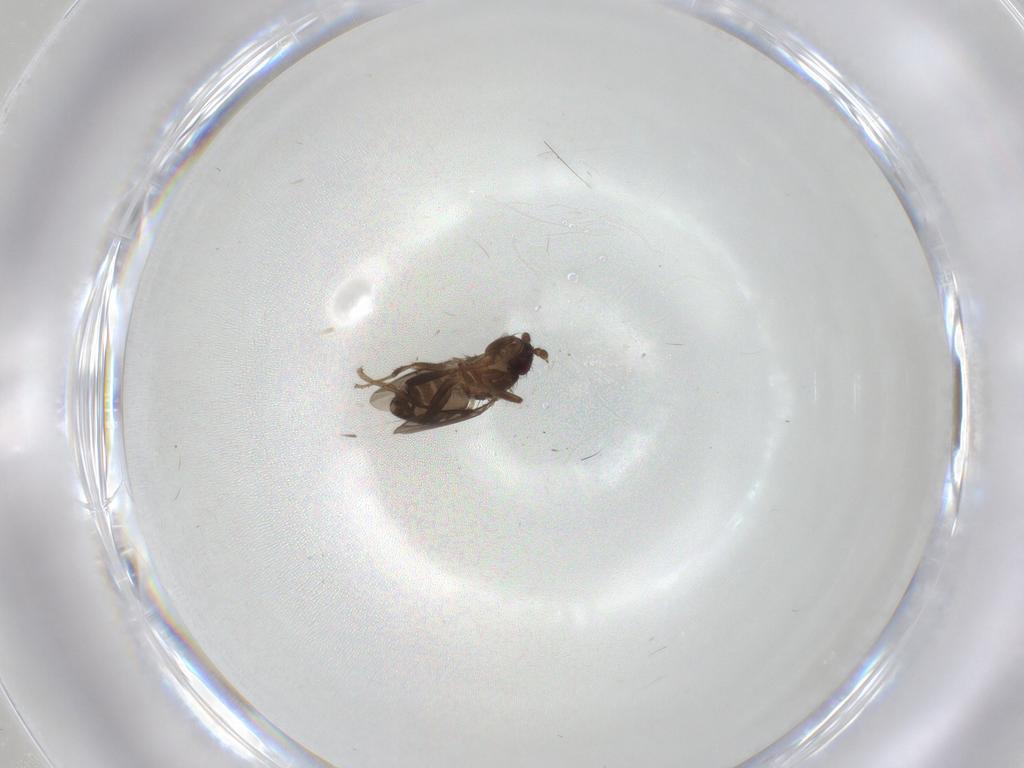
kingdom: Animalia
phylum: Arthropoda
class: Insecta
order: Diptera
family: Sphaeroceridae
